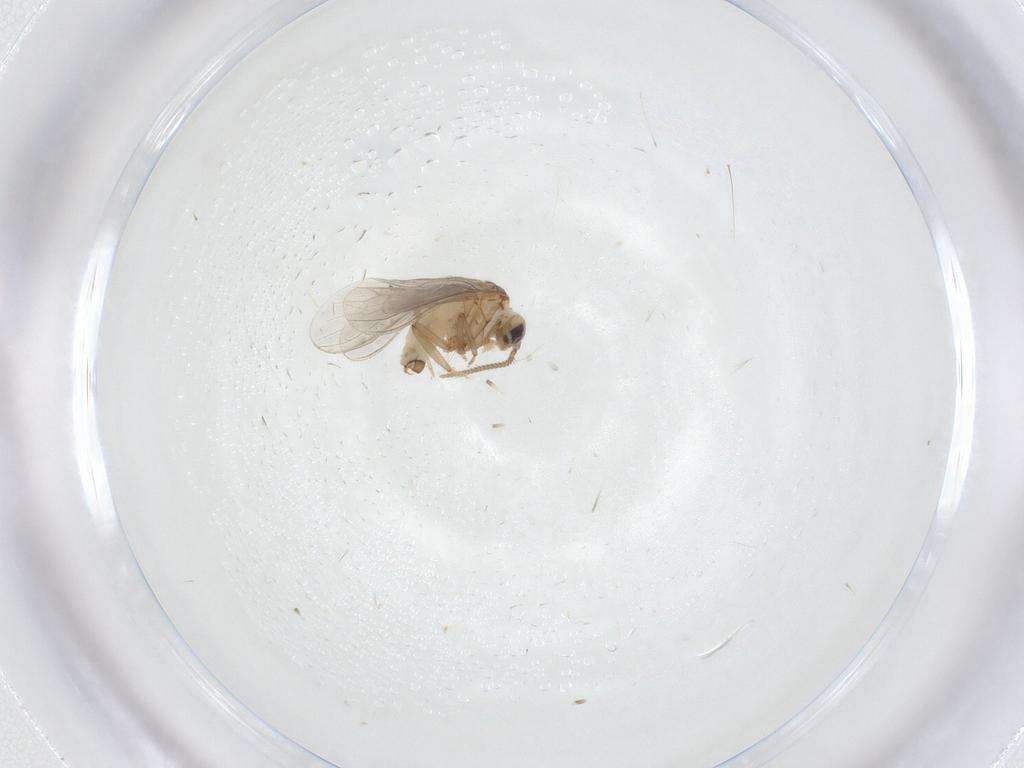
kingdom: Animalia
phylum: Arthropoda
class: Insecta
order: Neuroptera
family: Coniopterygidae
